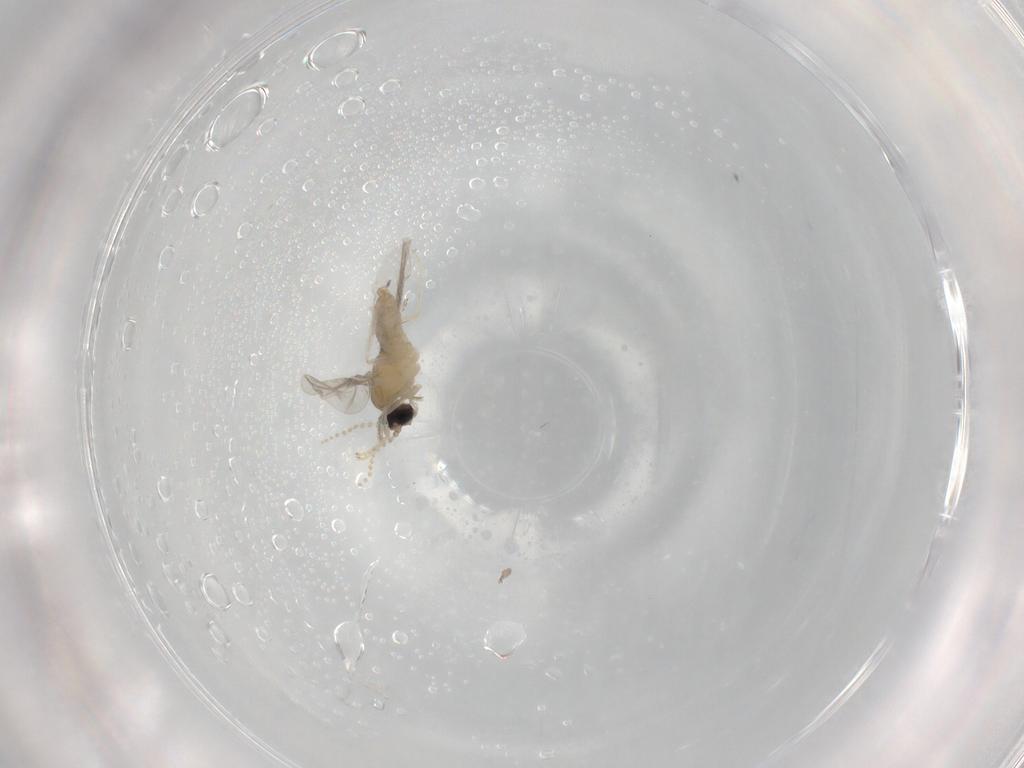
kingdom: Animalia
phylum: Arthropoda
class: Insecta
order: Diptera
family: Cecidomyiidae
